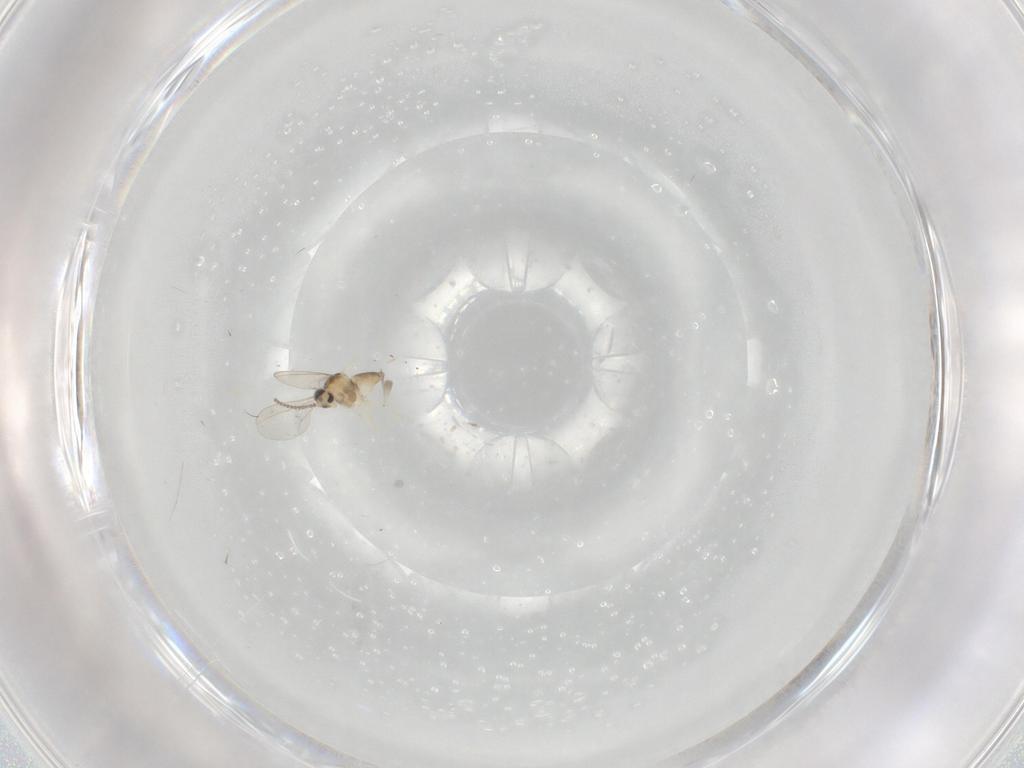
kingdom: Animalia
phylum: Arthropoda
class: Insecta
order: Diptera
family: Cecidomyiidae
